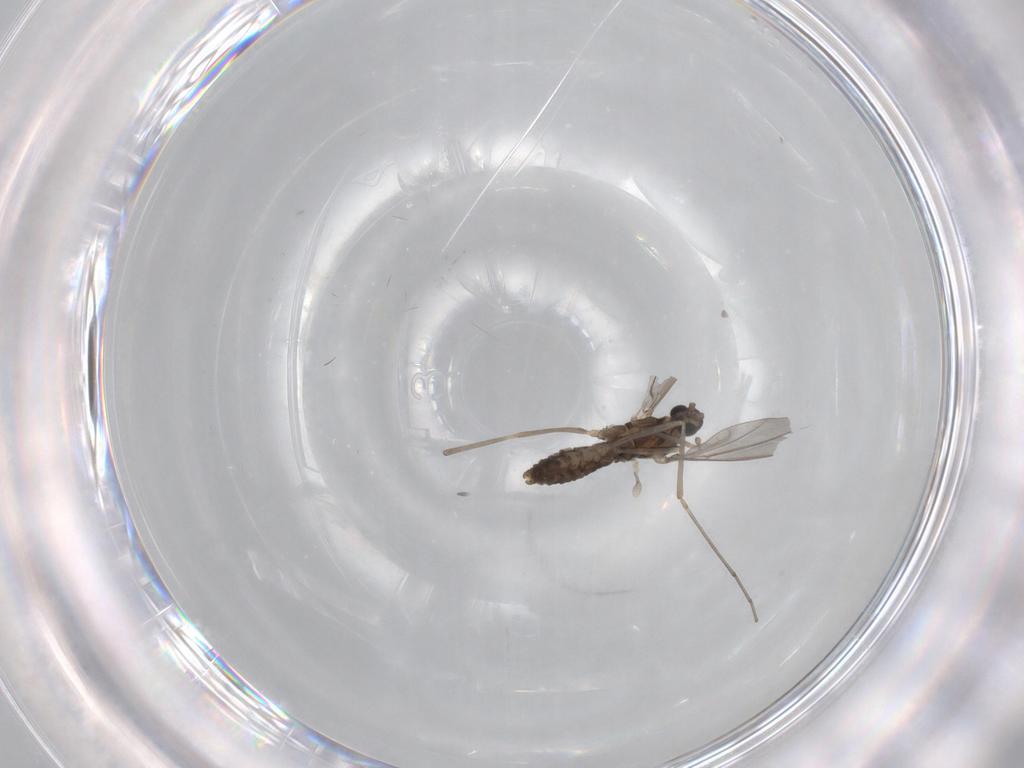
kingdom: Animalia
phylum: Arthropoda
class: Insecta
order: Diptera
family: Cecidomyiidae
